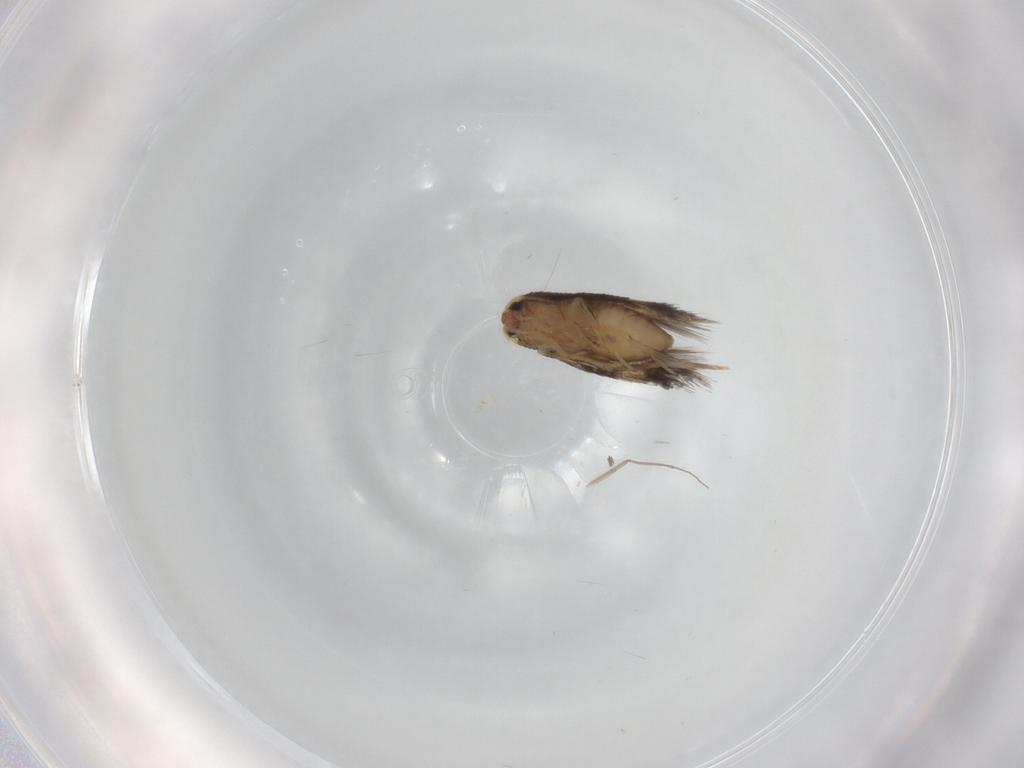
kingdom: Animalia
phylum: Arthropoda
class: Insecta
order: Lepidoptera
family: Nepticulidae
